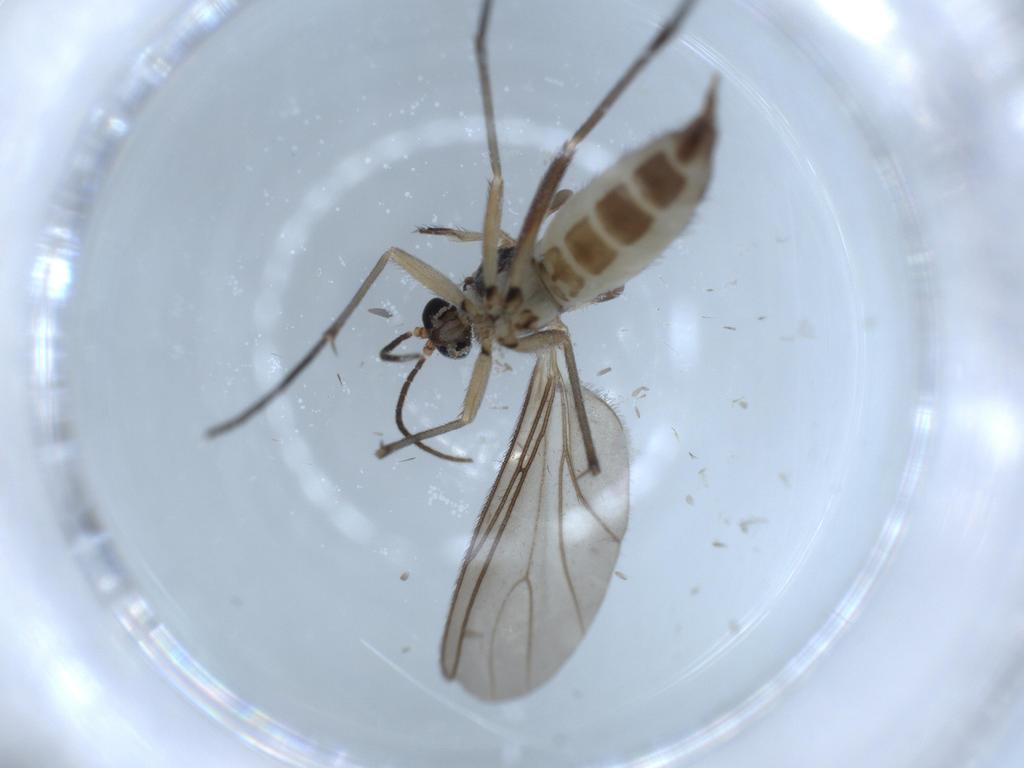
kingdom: Animalia
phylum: Arthropoda
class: Insecta
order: Diptera
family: Sciaridae
